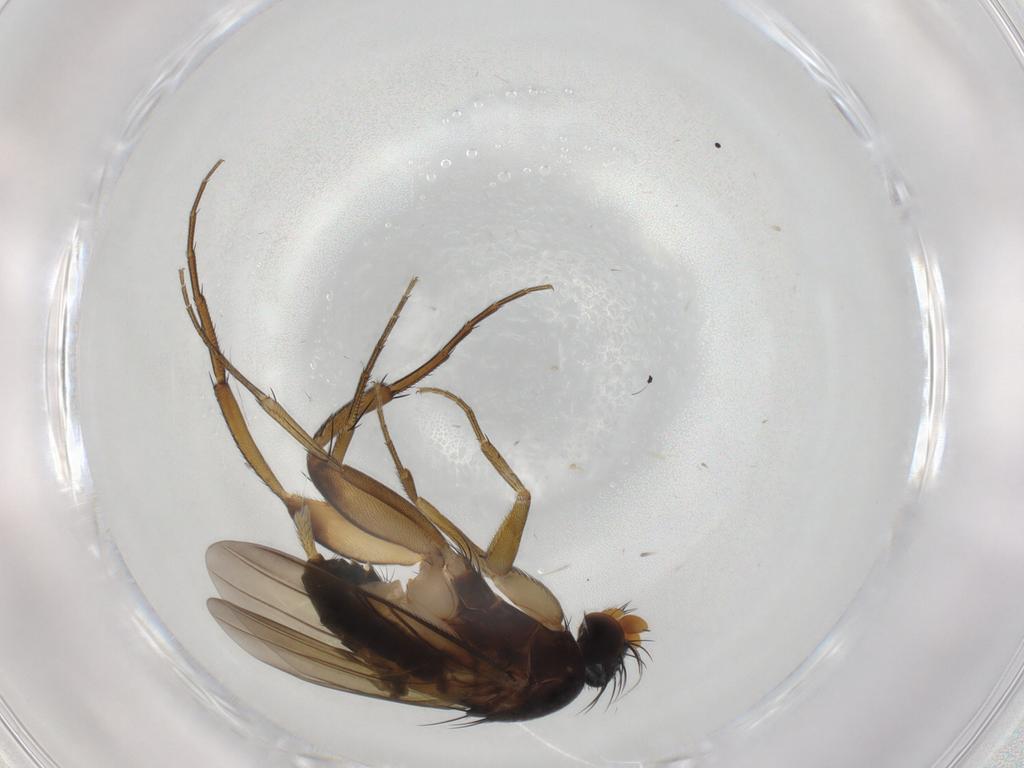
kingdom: Animalia
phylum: Arthropoda
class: Insecta
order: Diptera
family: Phoridae
